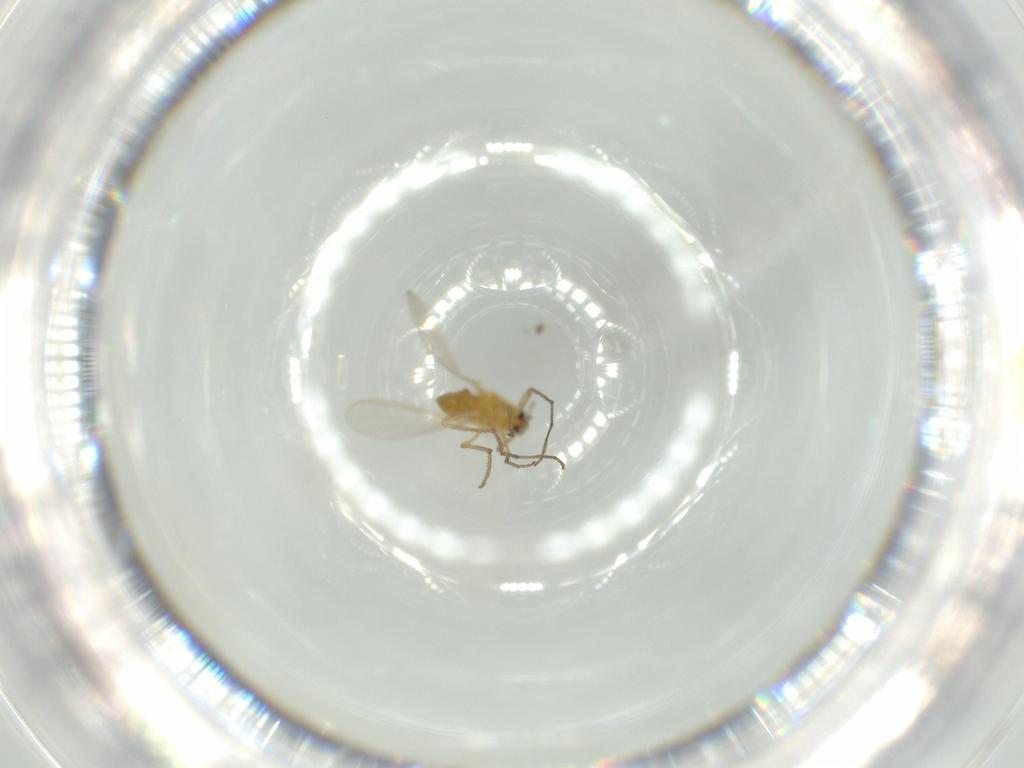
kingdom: Animalia
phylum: Arthropoda
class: Insecta
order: Diptera
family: Chironomidae
